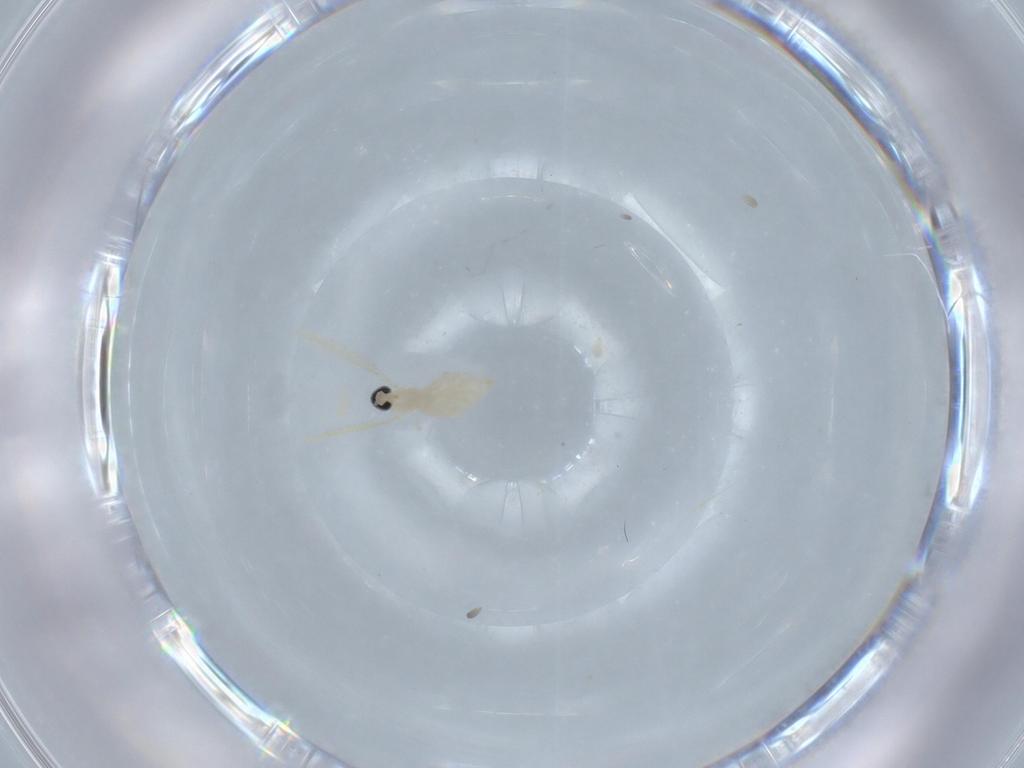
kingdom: Animalia
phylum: Arthropoda
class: Insecta
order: Diptera
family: Cecidomyiidae
